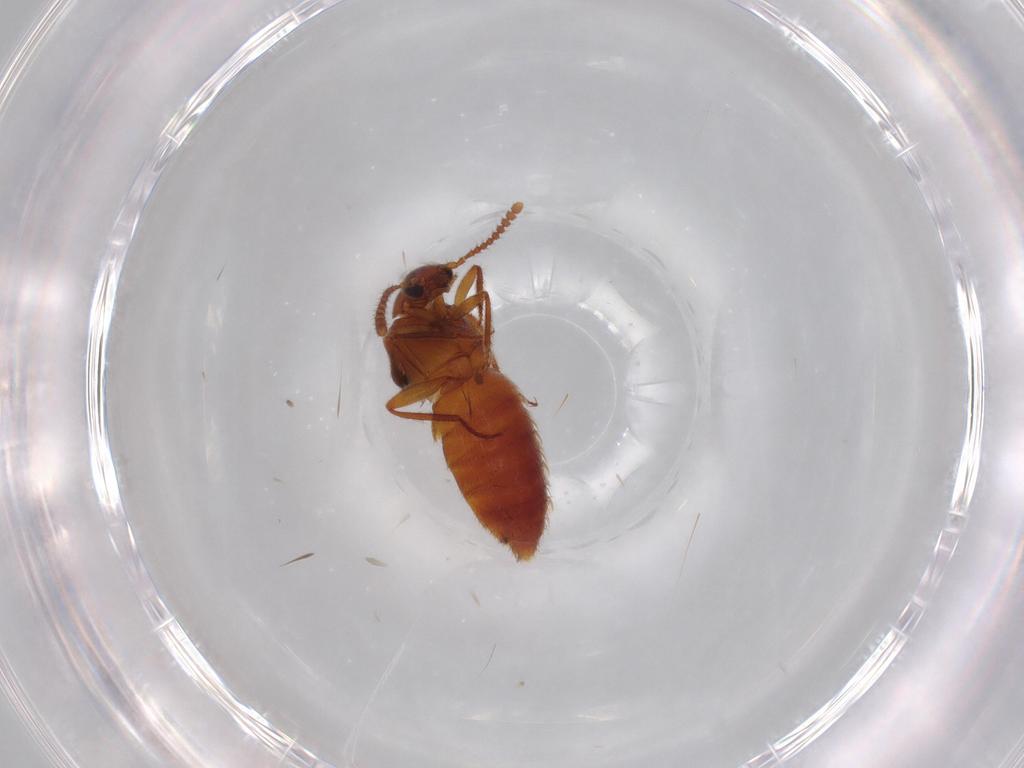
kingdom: Animalia
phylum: Arthropoda
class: Insecta
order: Coleoptera
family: Staphylinidae
